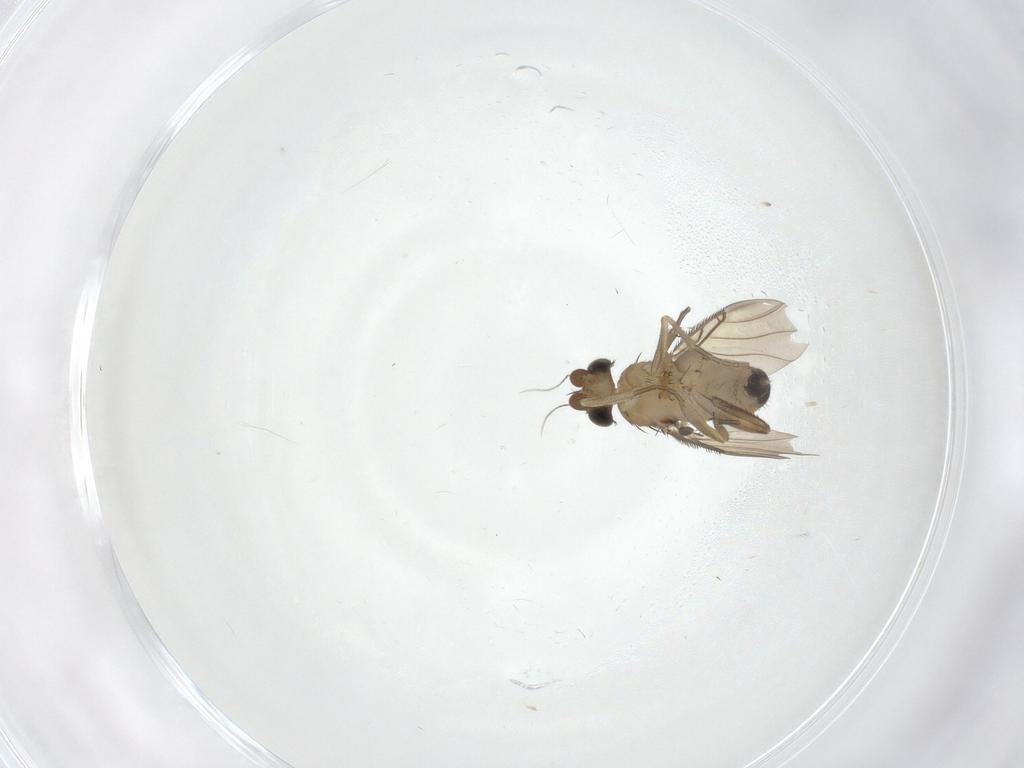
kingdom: Animalia
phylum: Arthropoda
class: Insecta
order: Diptera
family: Phoridae
